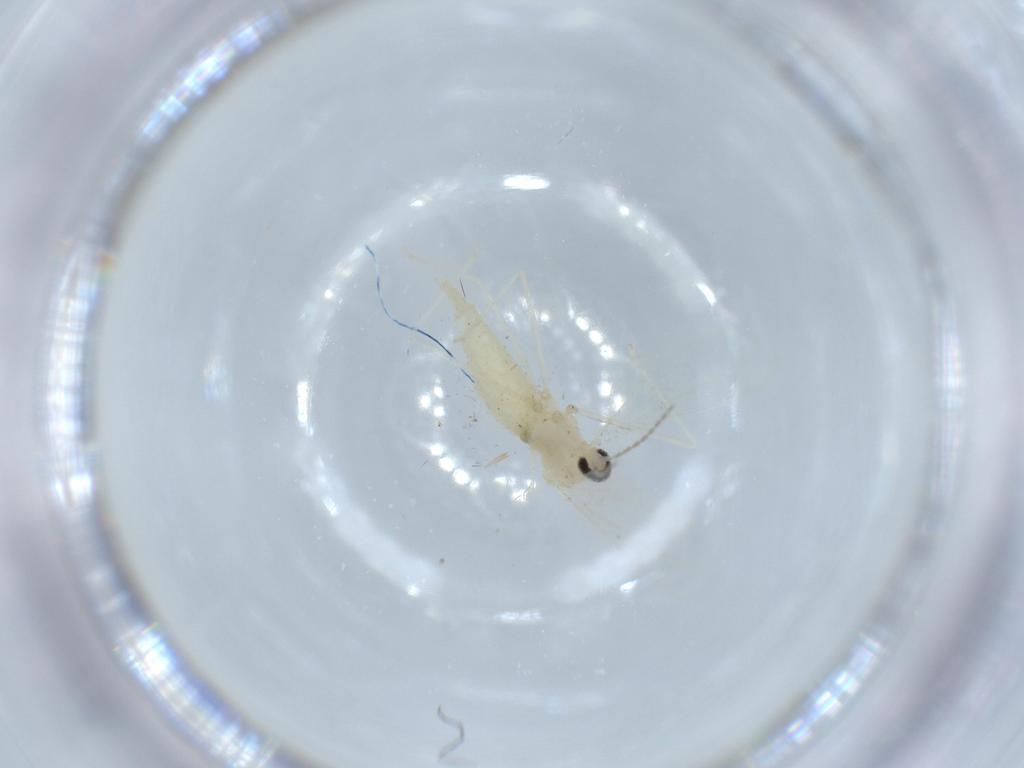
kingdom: Animalia
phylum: Arthropoda
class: Insecta
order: Diptera
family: Cecidomyiidae
